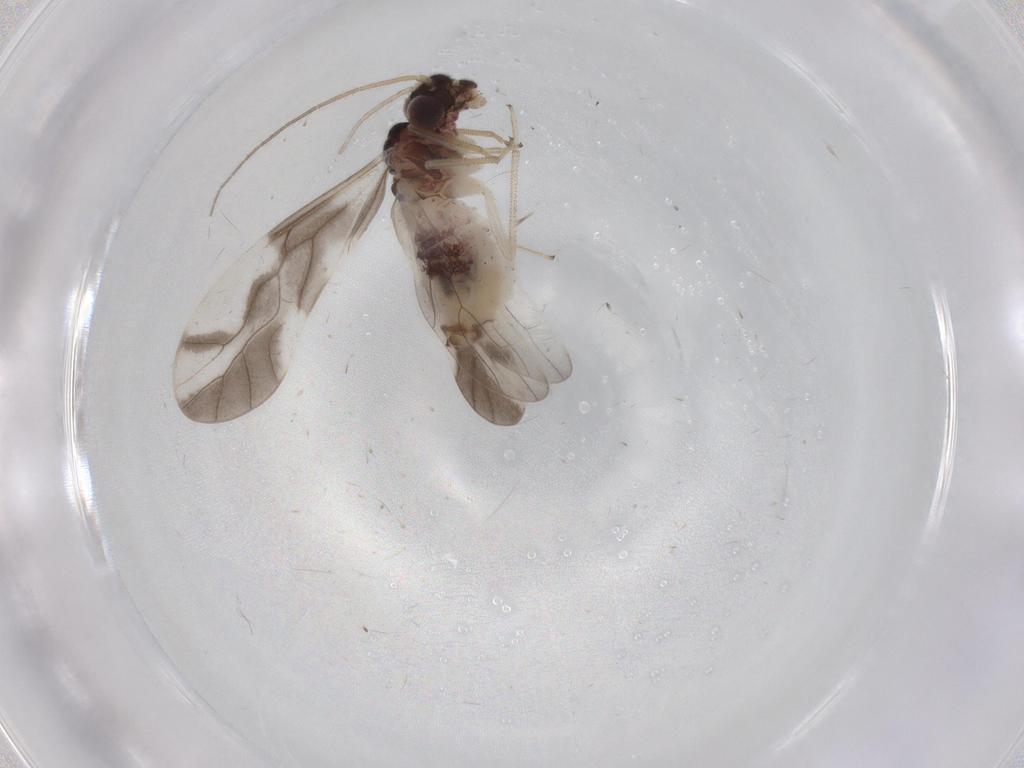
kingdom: Animalia
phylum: Arthropoda
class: Insecta
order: Psocodea
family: Caeciliusidae
